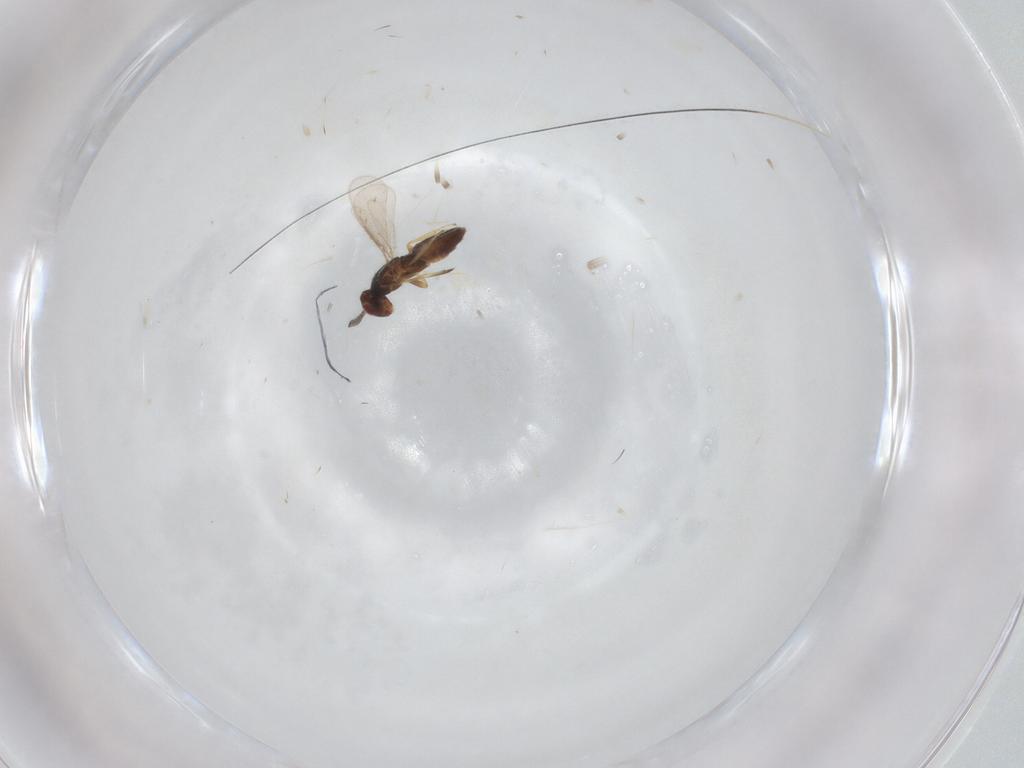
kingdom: Animalia
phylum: Arthropoda
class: Insecta
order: Hymenoptera
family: Eulophidae
